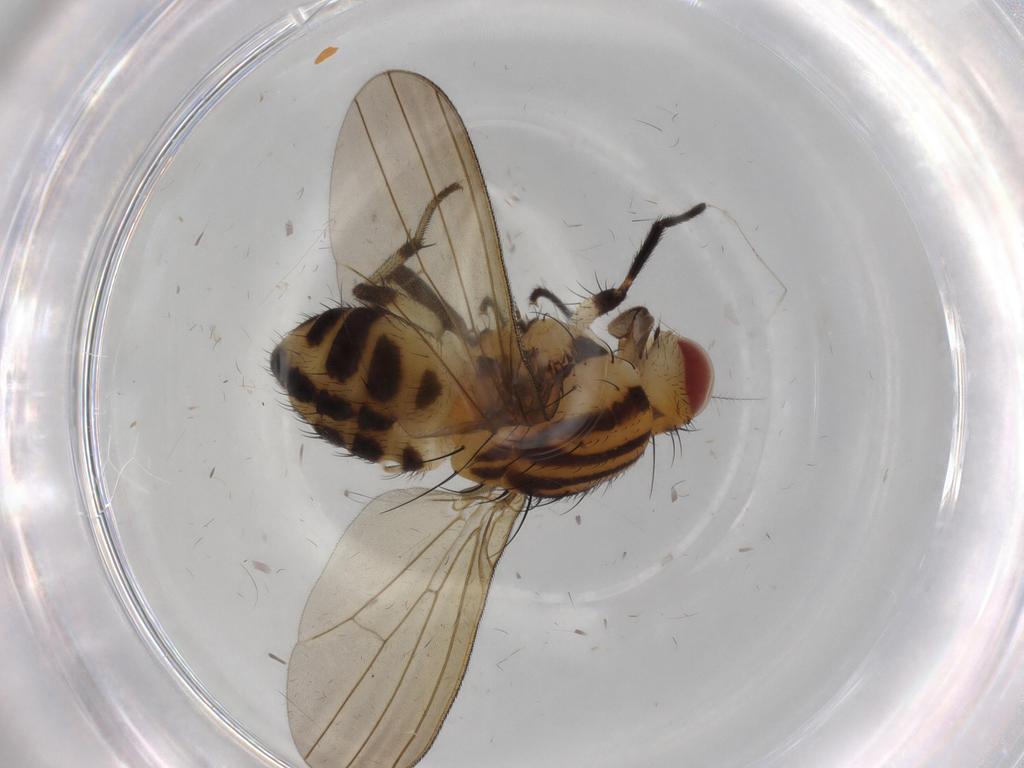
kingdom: Animalia
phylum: Arthropoda
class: Insecta
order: Diptera
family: Lauxaniidae
